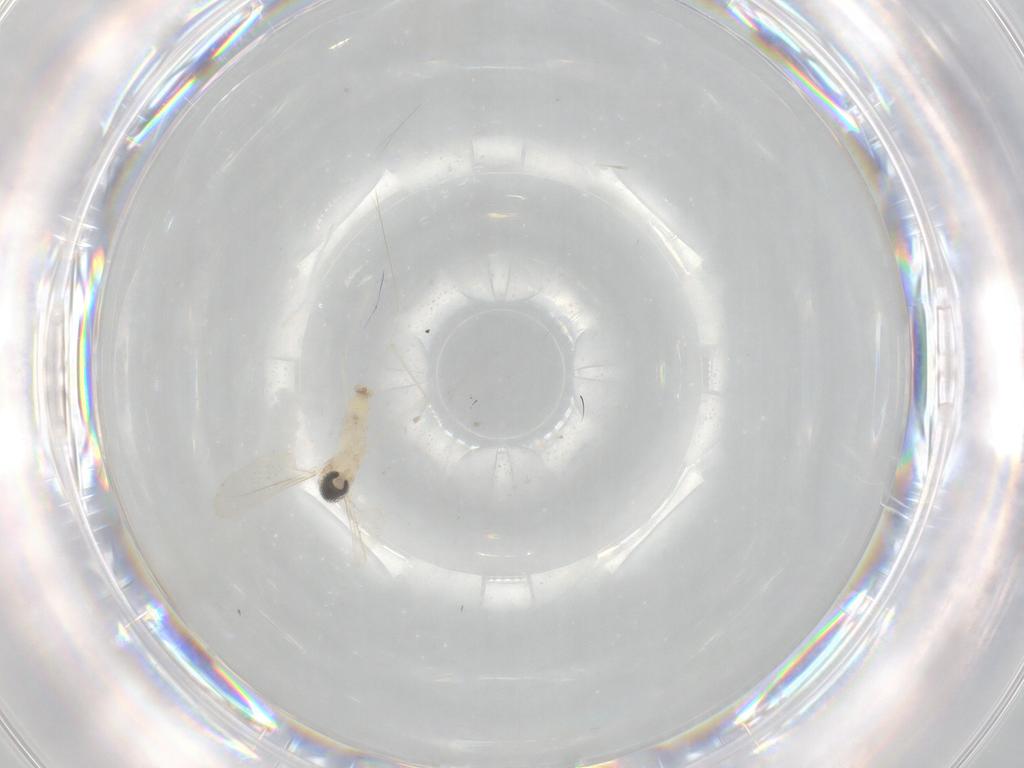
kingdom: Animalia
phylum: Arthropoda
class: Insecta
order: Diptera
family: Cecidomyiidae
